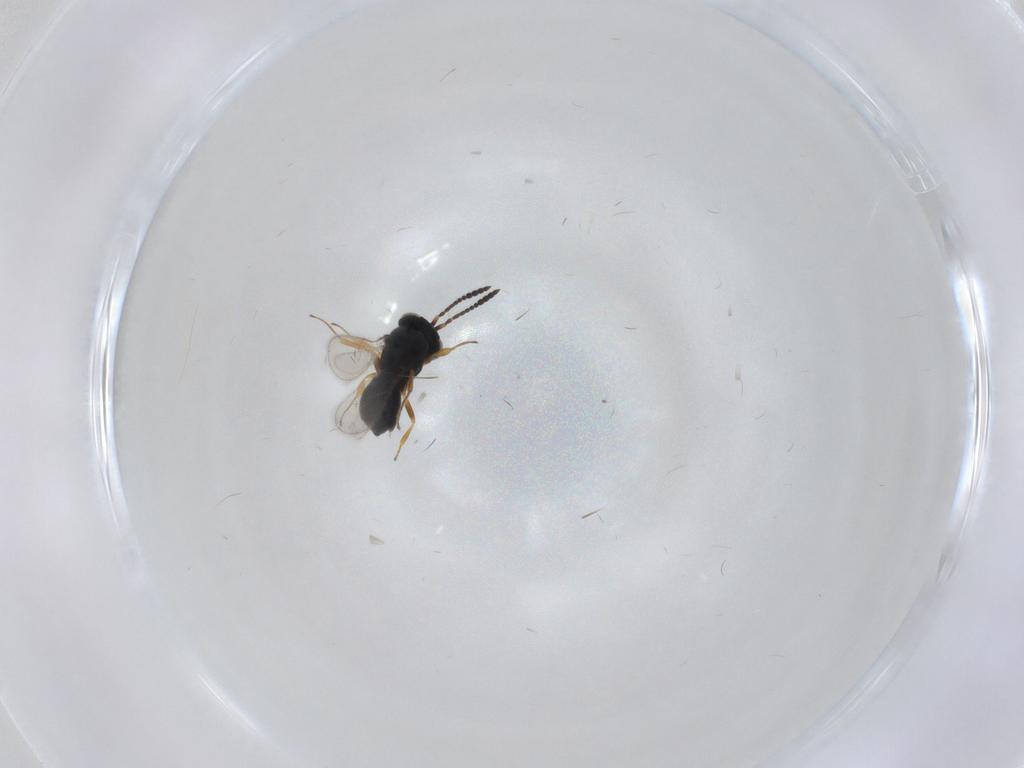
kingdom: Animalia
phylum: Arthropoda
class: Insecta
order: Hymenoptera
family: Scelionidae
